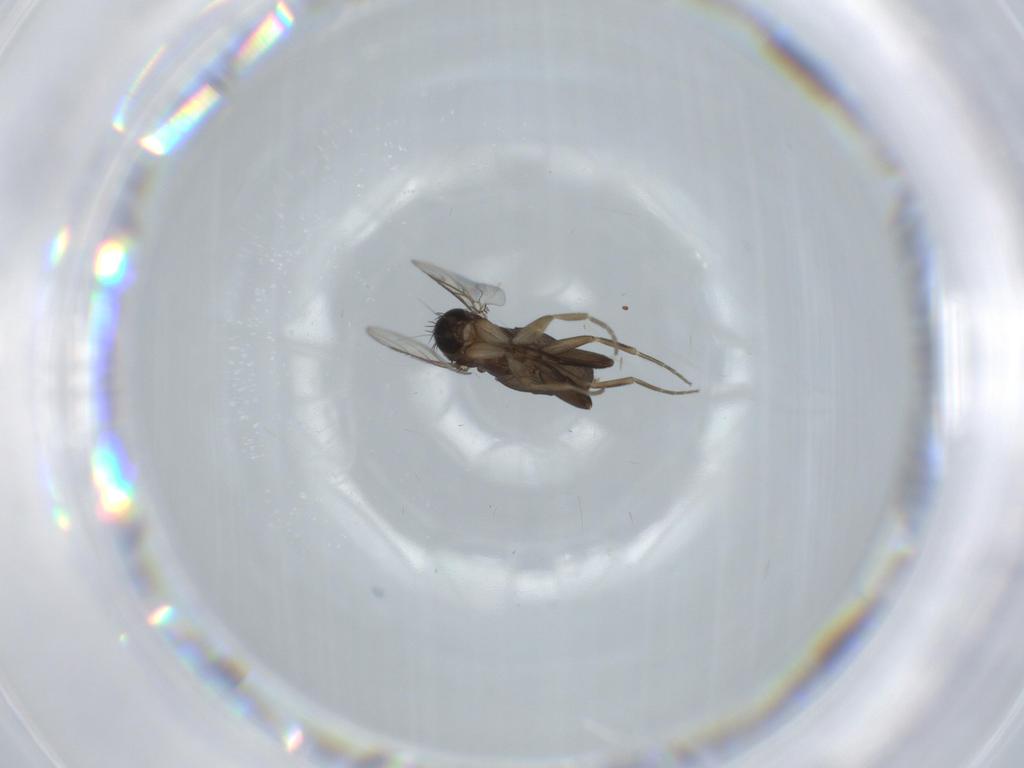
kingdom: Animalia
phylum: Arthropoda
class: Insecta
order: Diptera
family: Phoridae
